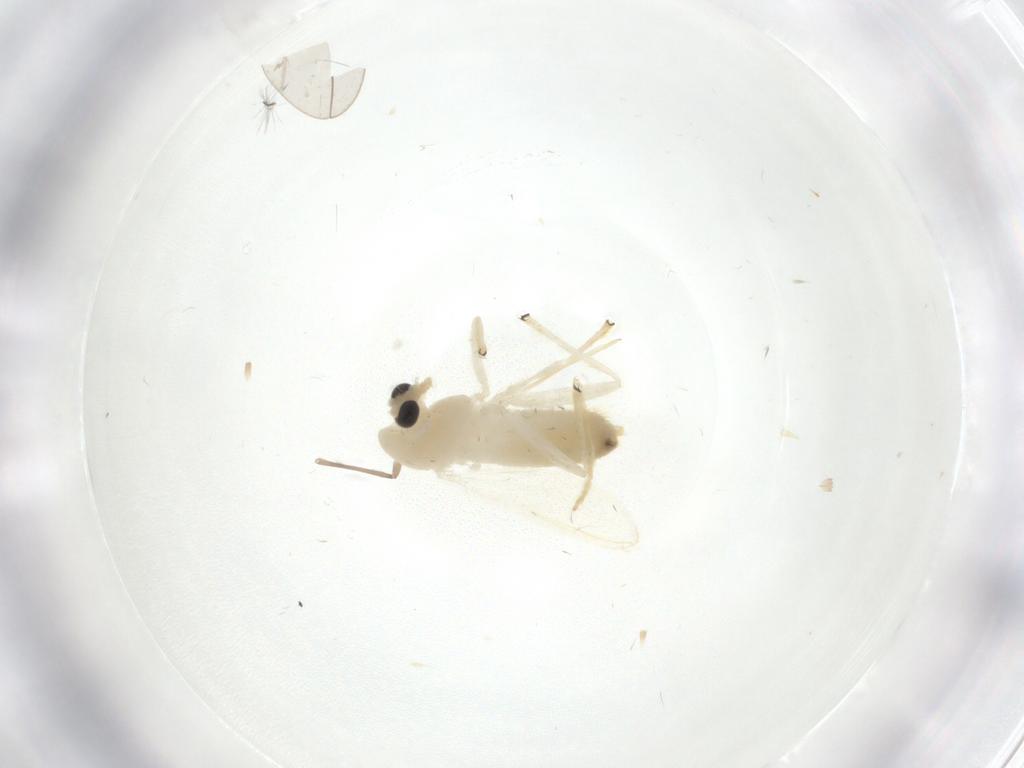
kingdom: Animalia
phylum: Arthropoda
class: Insecta
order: Diptera
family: Chironomidae
